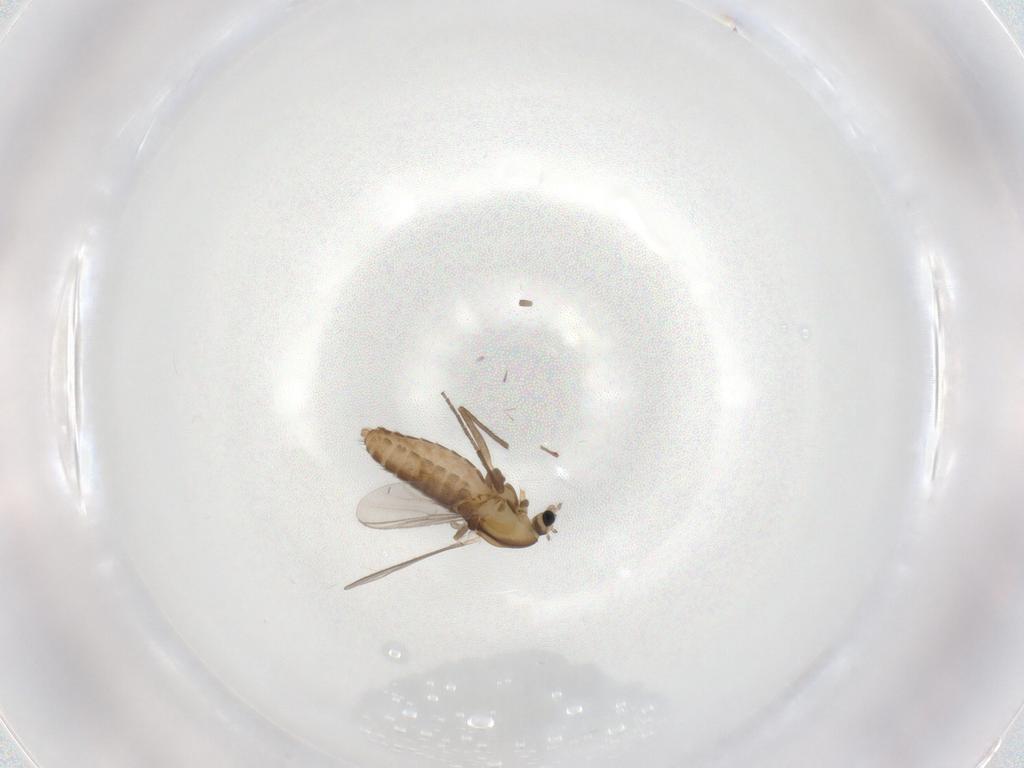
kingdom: Animalia
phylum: Arthropoda
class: Insecta
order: Diptera
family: Chironomidae
